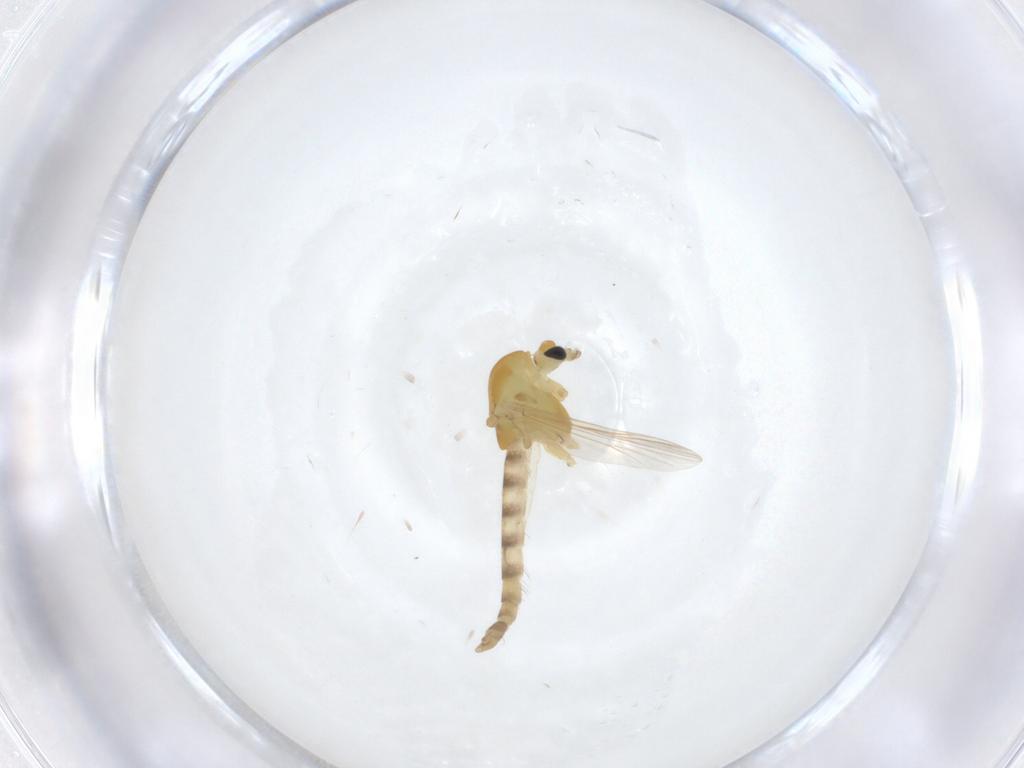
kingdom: Animalia
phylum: Arthropoda
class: Insecta
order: Diptera
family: Chironomidae
